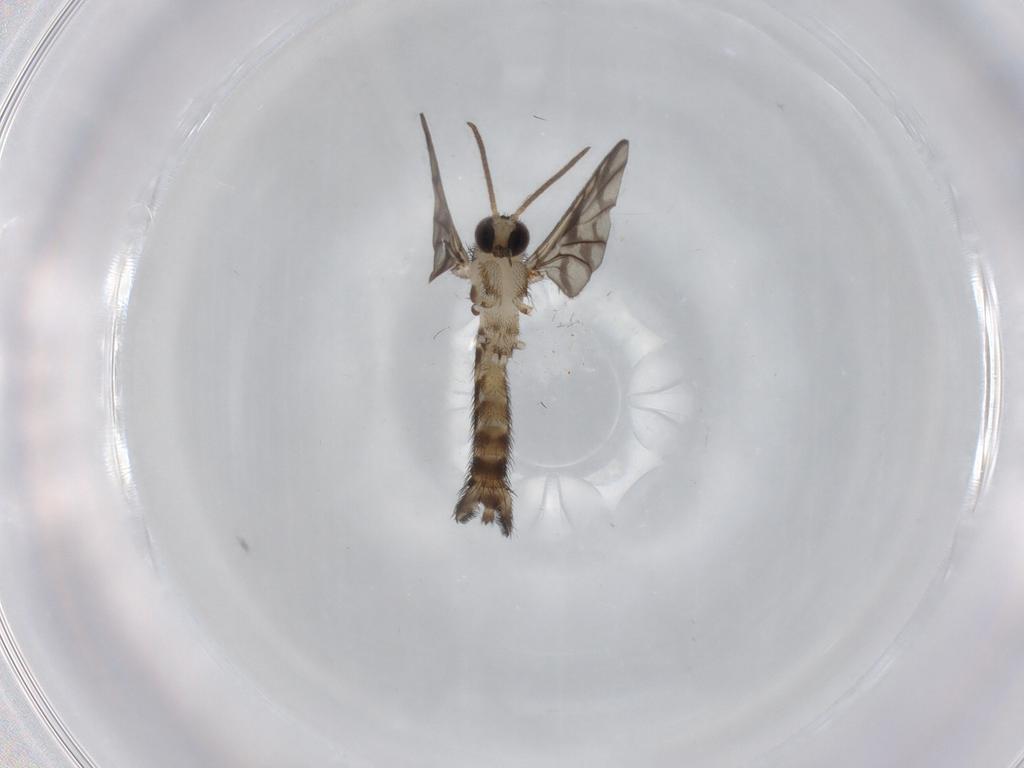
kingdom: Animalia
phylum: Arthropoda
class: Insecta
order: Diptera
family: Keroplatidae
